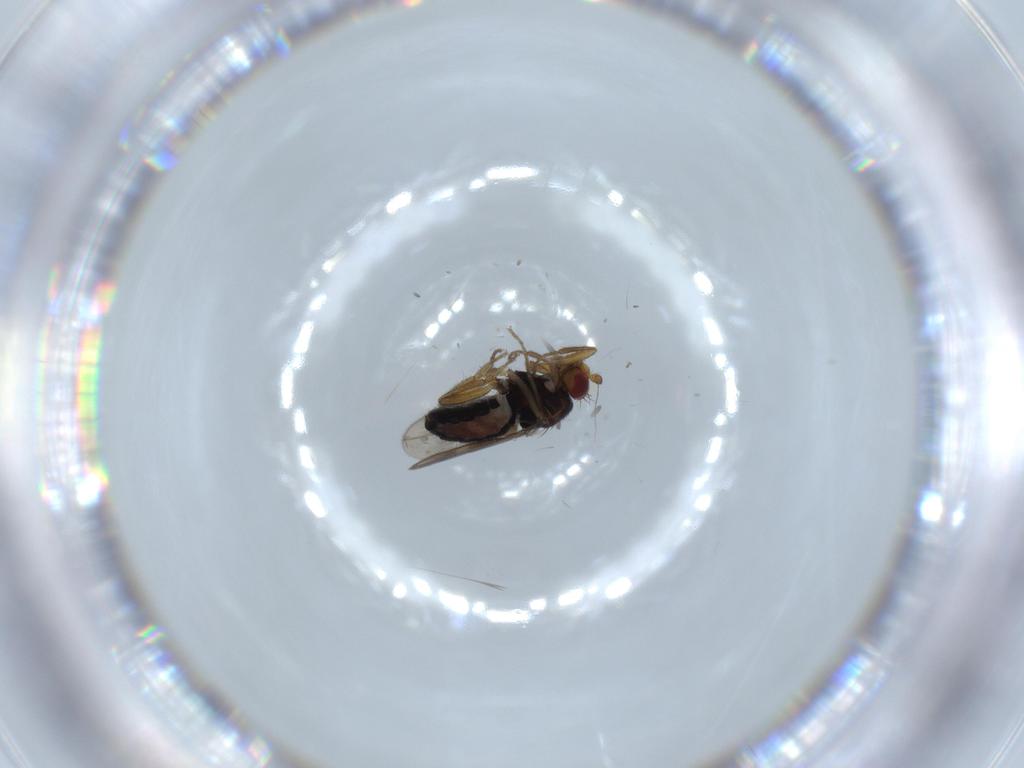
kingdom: Animalia
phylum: Arthropoda
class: Insecta
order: Diptera
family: Sphaeroceridae
